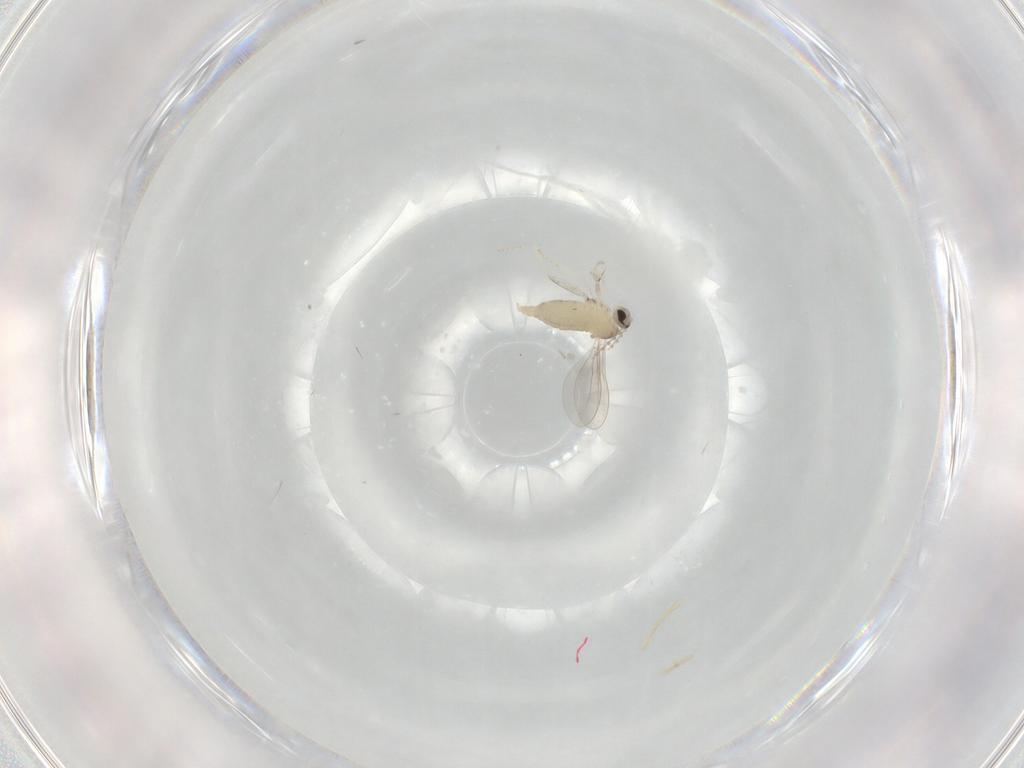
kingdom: Animalia
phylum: Arthropoda
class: Insecta
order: Diptera
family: Cecidomyiidae
